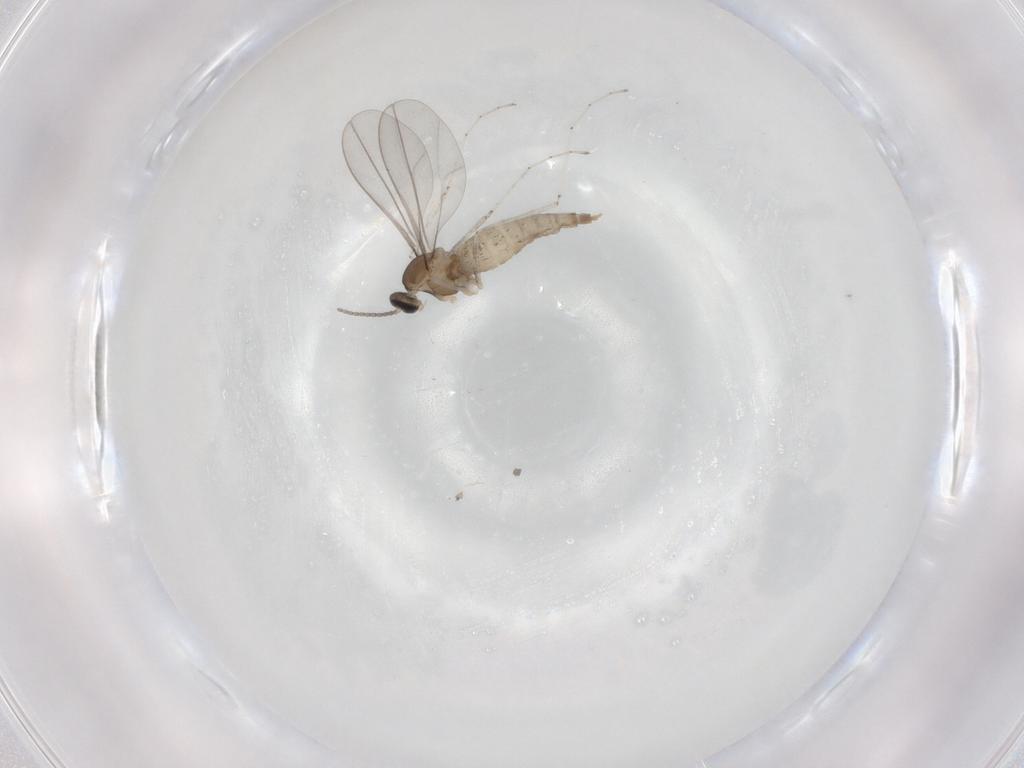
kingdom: Animalia
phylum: Arthropoda
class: Insecta
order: Diptera
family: Cecidomyiidae
